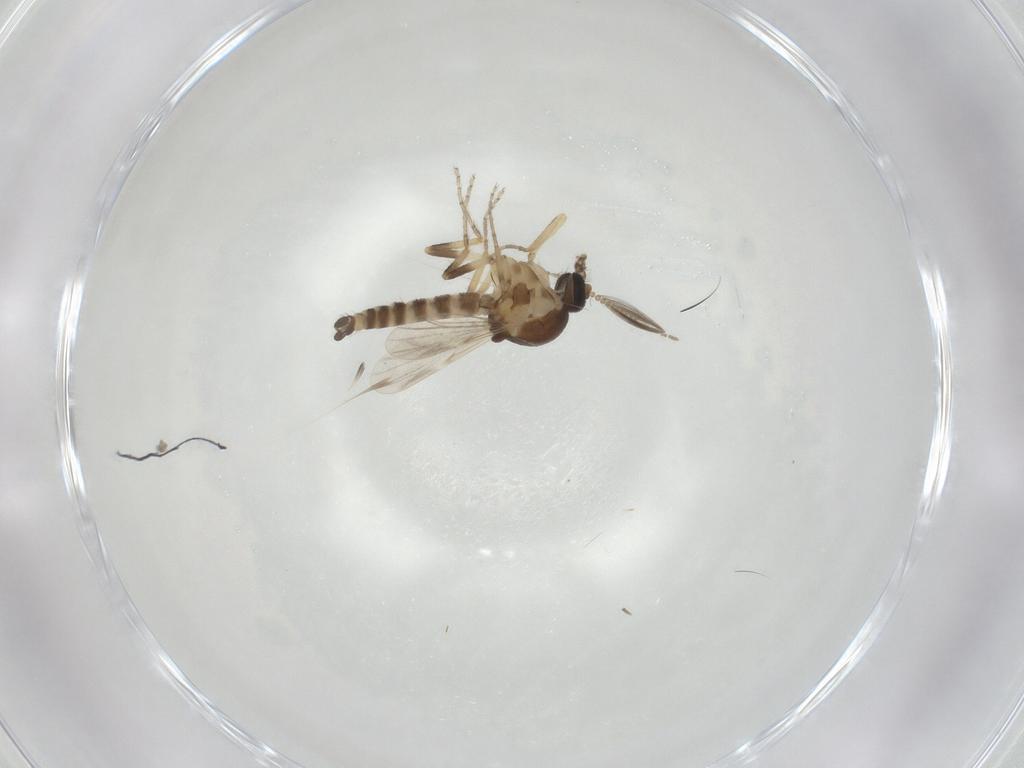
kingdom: Animalia
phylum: Arthropoda
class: Insecta
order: Diptera
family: Ceratopogonidae
